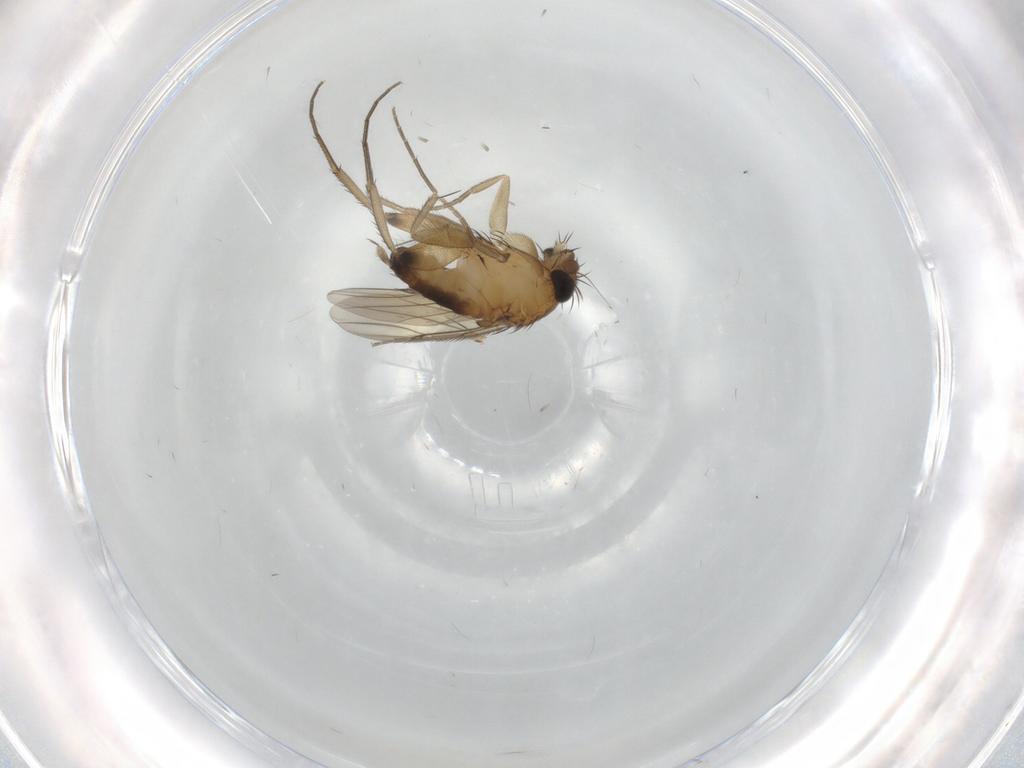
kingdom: Animalia
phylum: Arthropoda
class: Insecta
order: Diptera
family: Phoridae
